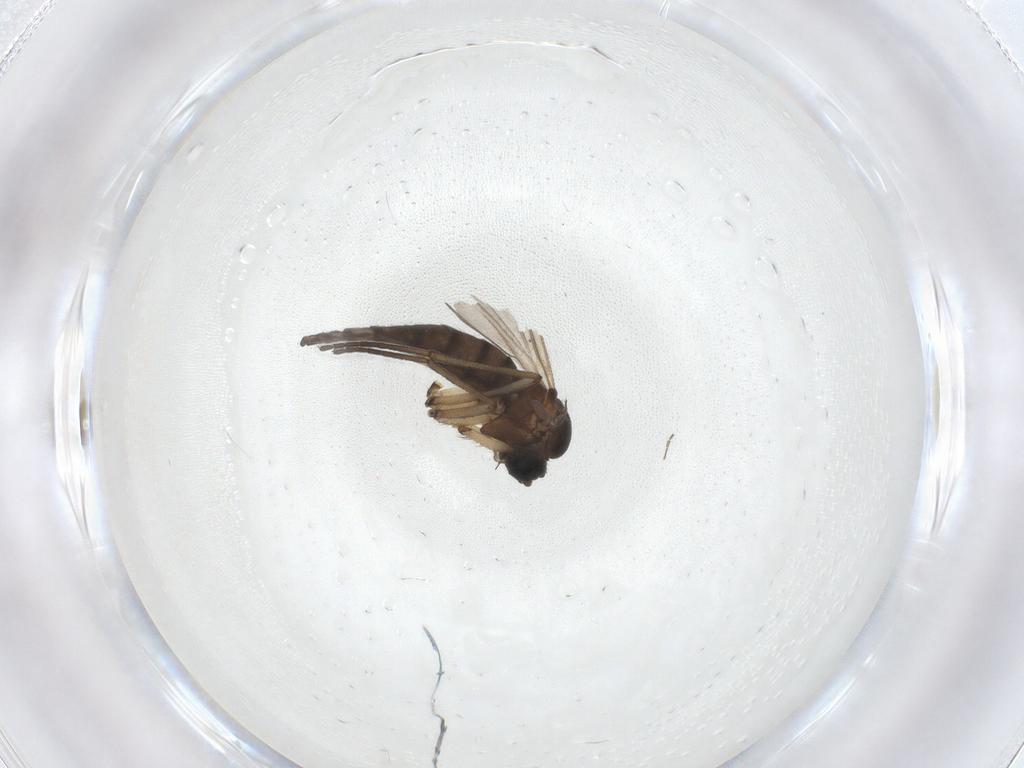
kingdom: Animalia
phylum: Arthropoda
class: Insecta
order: Diptera
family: Sciaridae
